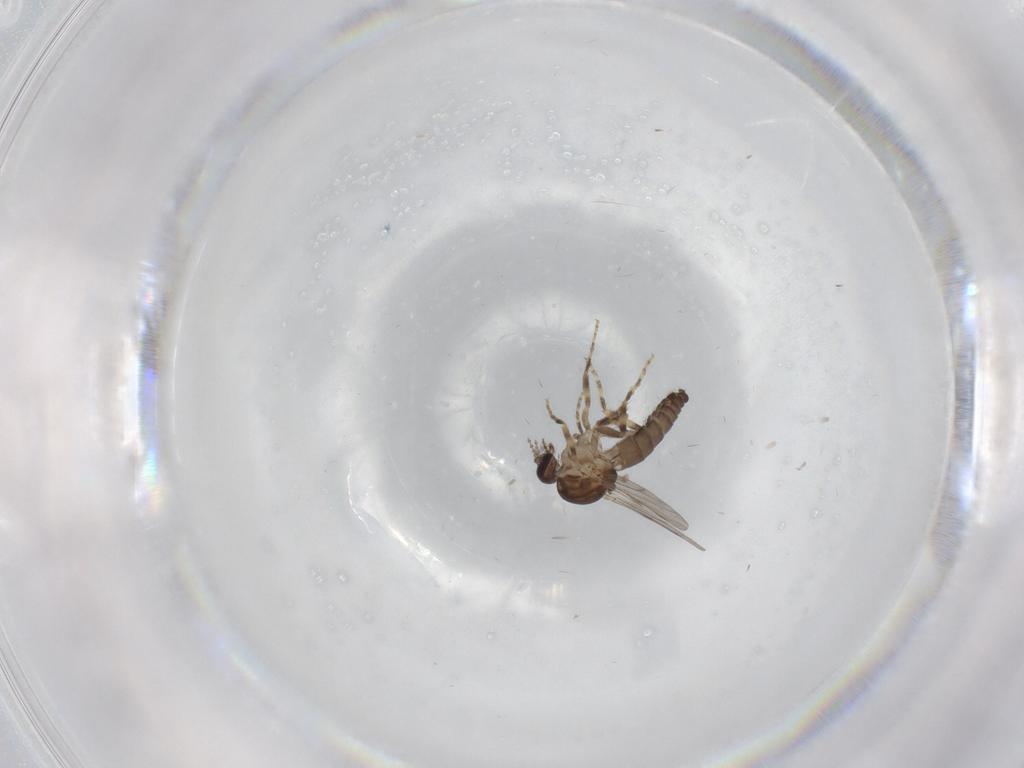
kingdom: Animalia
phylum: Arthropoda
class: Insecta
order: Diptera
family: Ceratopogonidae
